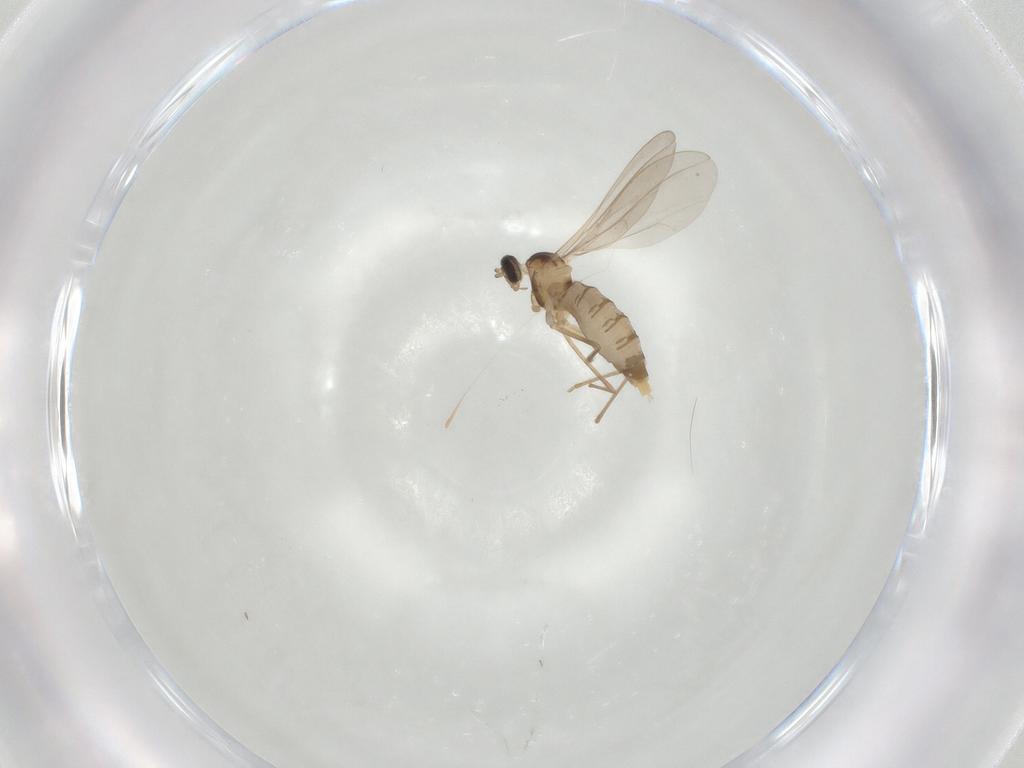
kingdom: Animalia
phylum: Arthropoda
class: Insecta
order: Diptera
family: Cecidomyiidae
